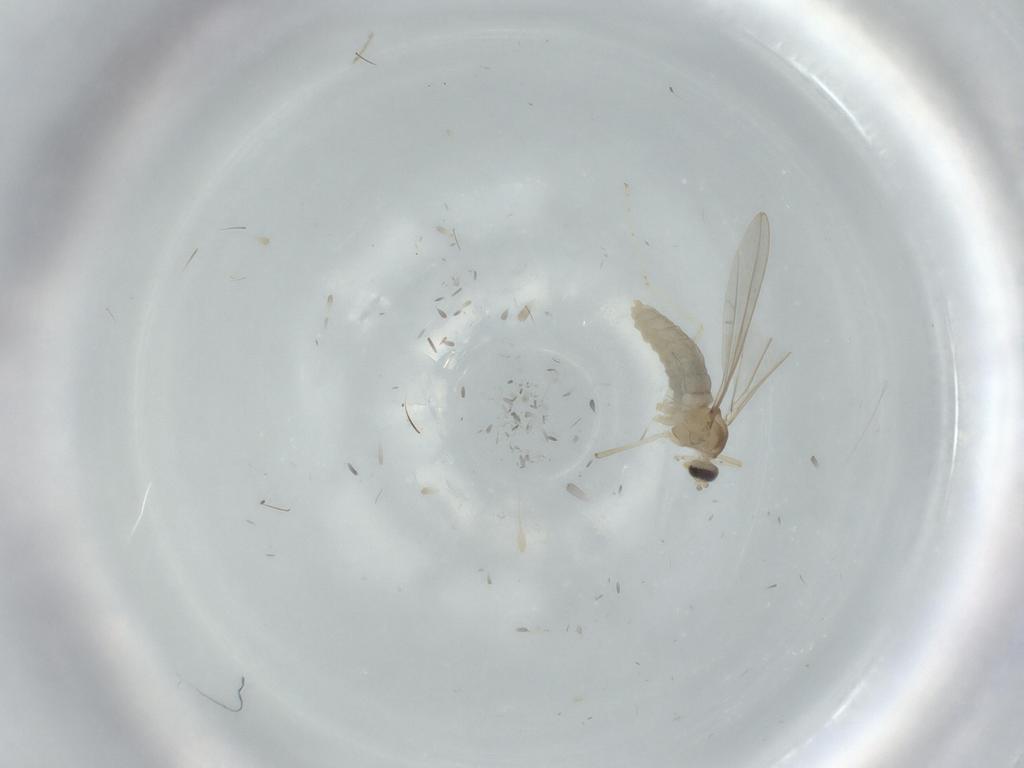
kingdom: Animalia
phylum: Arthropoda
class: Insecta
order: Diptera
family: Cecidomyiidae
